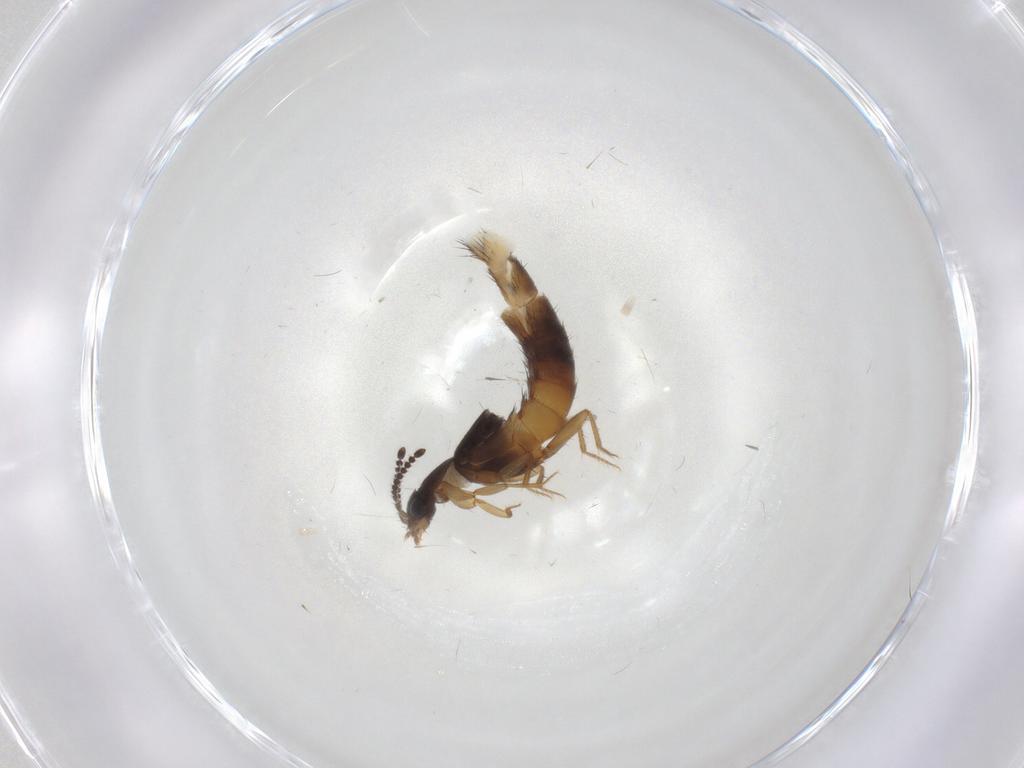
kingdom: Animalia
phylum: Arthropoda
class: Insecta
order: Coleoptera
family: Staphylinidae
